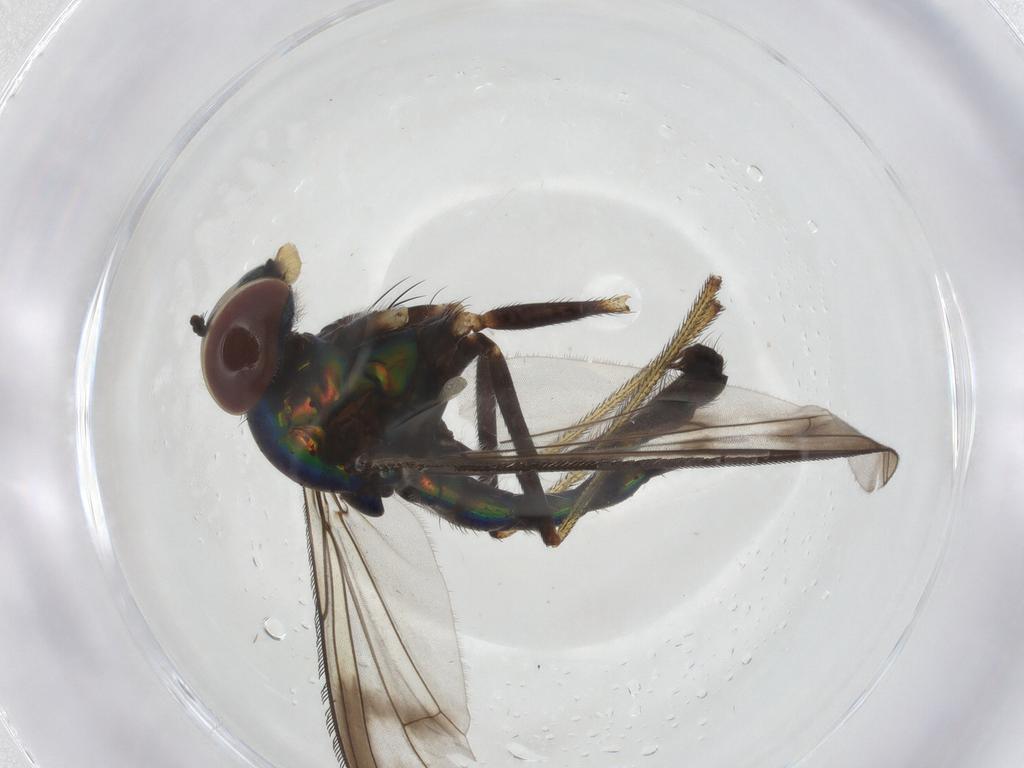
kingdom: Animalia
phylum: Arthropoda
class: Insecta
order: Diptera
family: Dolichopodidae
